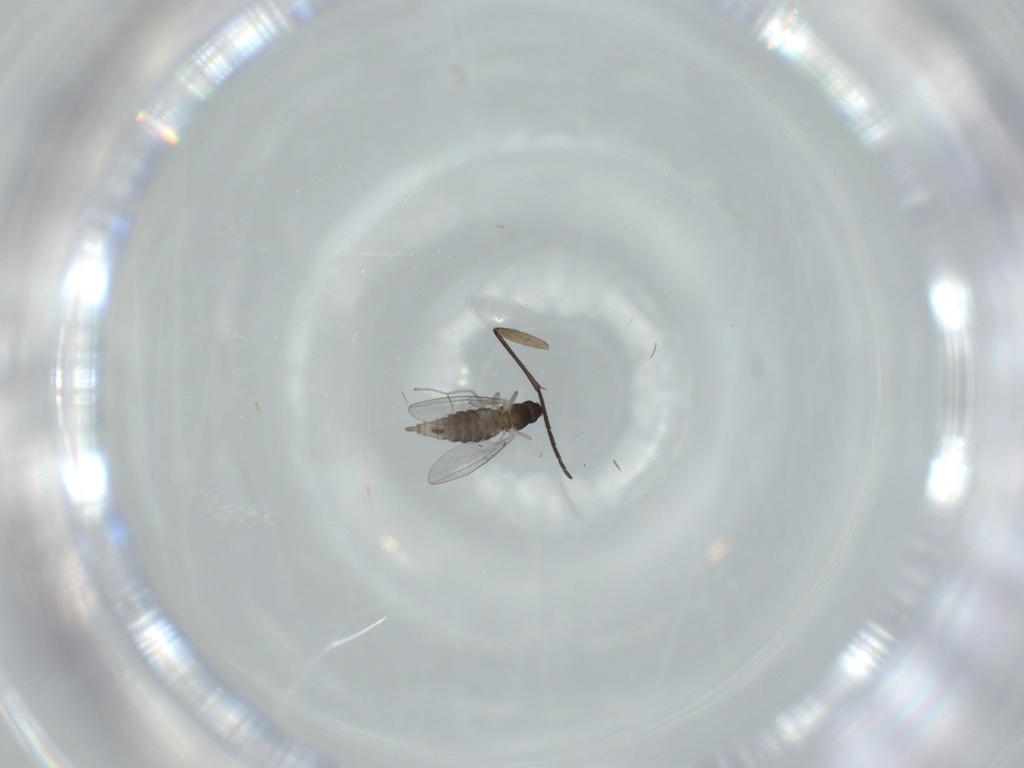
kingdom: Animalia
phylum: Arthropoda
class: Insecta
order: Diptera
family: Cecidomyiidae
